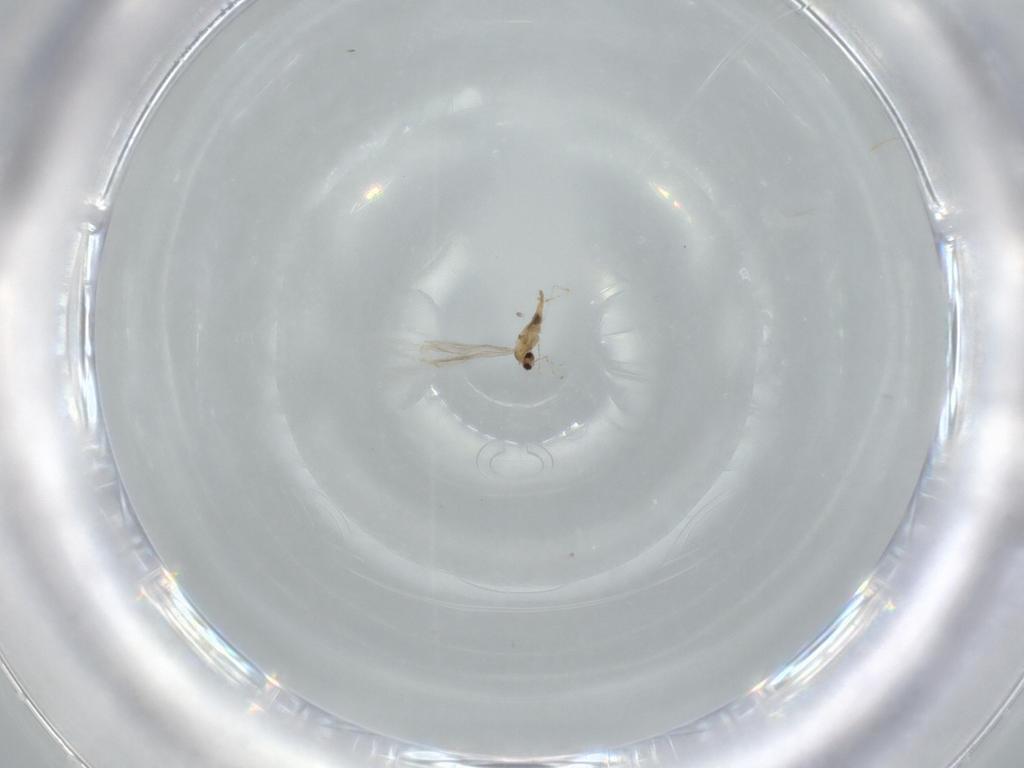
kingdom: Animalia
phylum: Arthropoda
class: Insecta
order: Diptera
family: Cecidomyiidae
